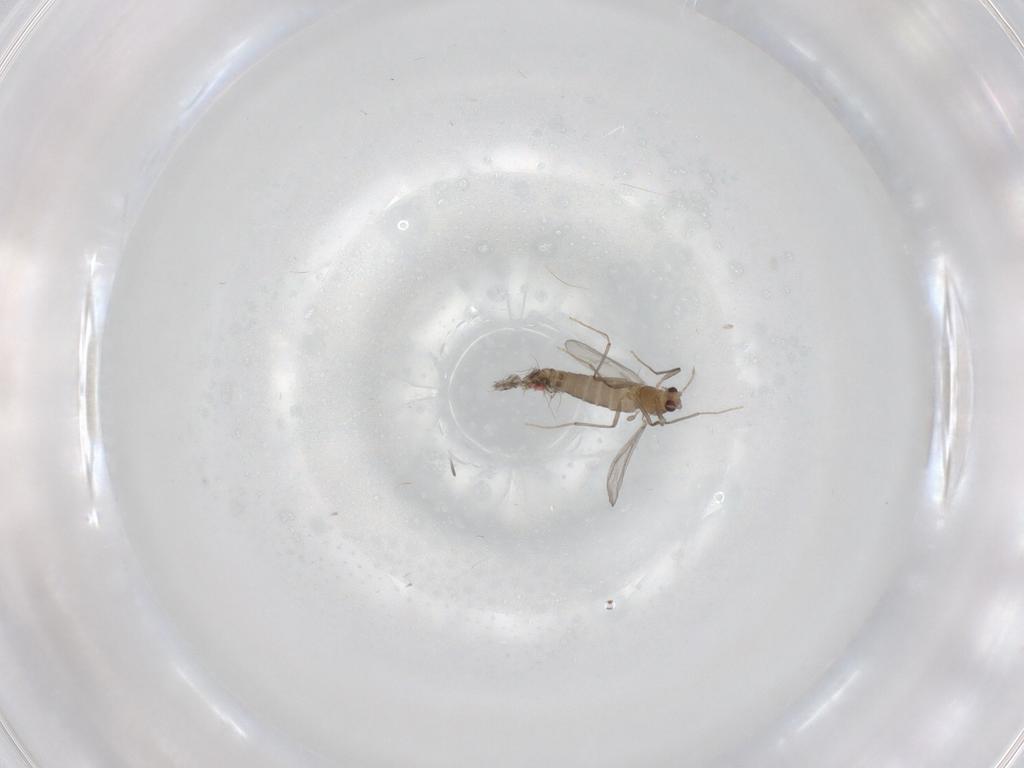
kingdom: Animalia
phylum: Arthropoda
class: Insecta
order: Diptera
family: Chironomidae
